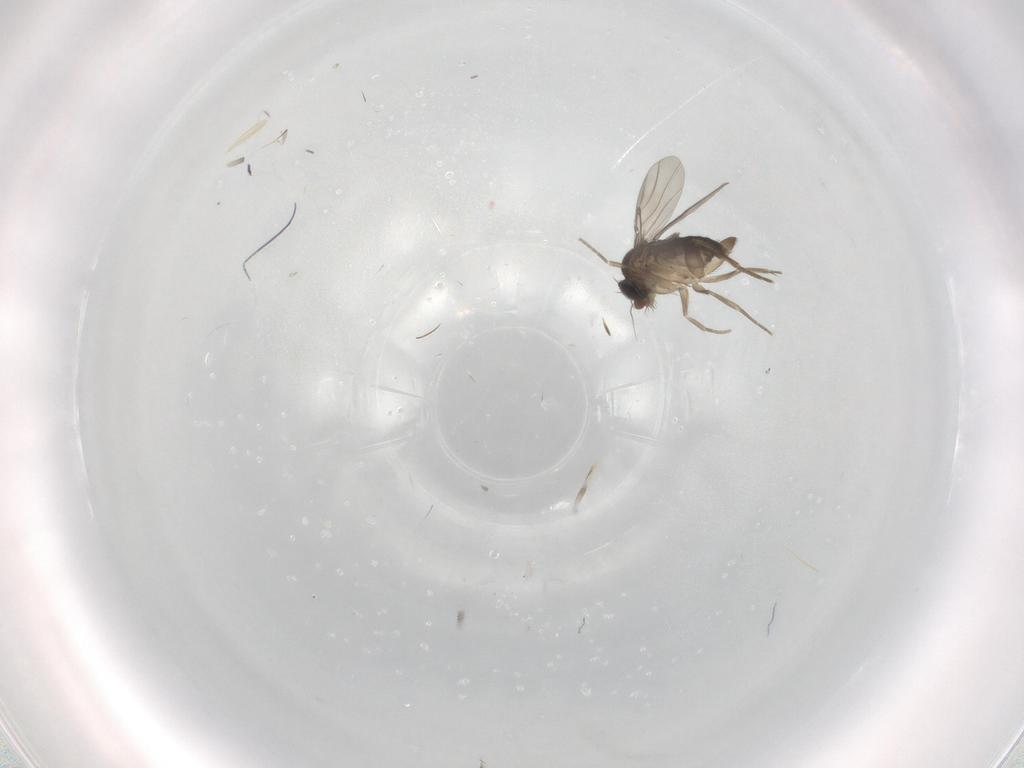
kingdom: Animalia
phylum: Arthropoda
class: Insecta
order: Diptera
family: Phoridae
